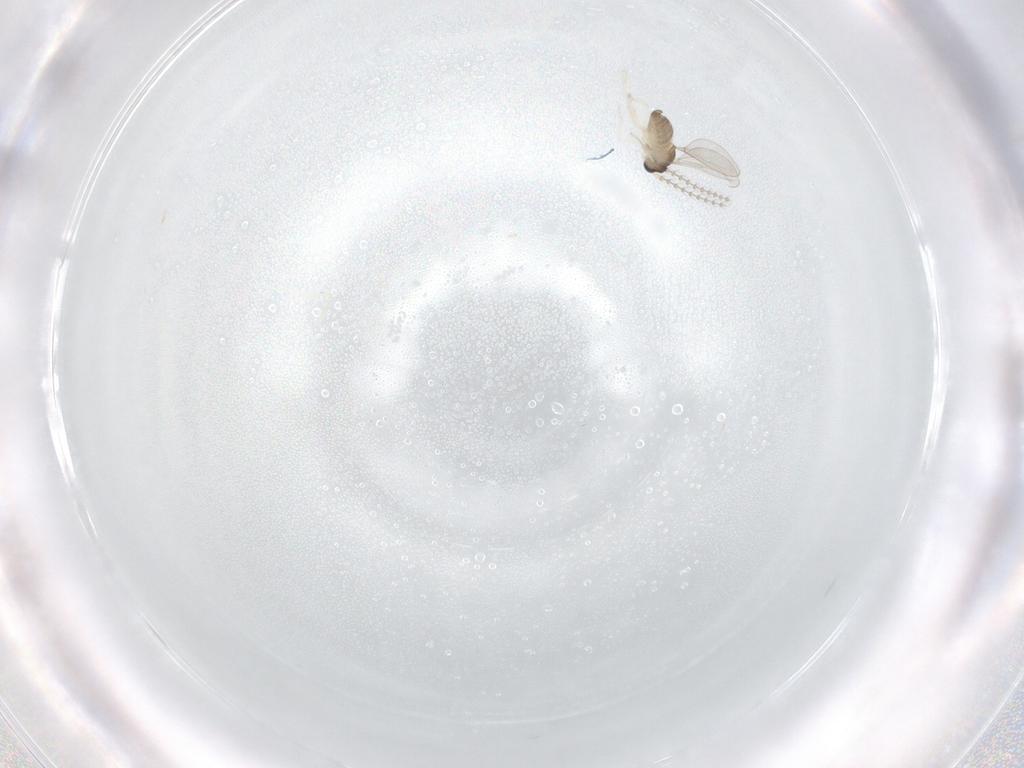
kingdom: Animalia
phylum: Arthropoda
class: Insecta
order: Diptera
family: Cecidomyiidae
